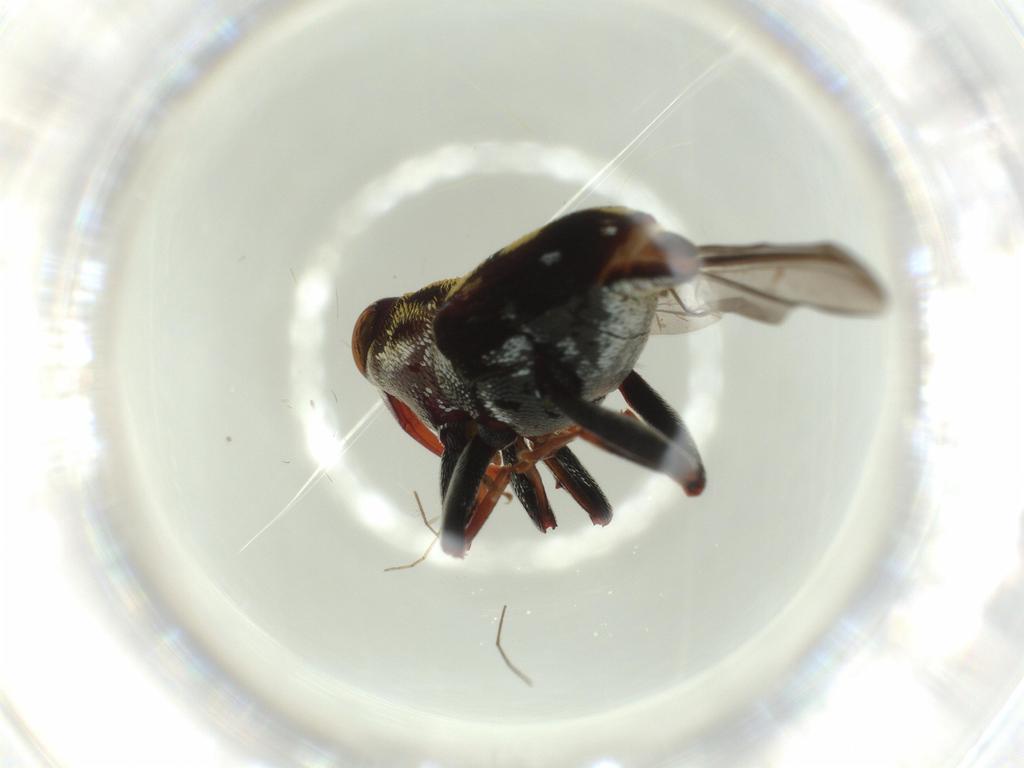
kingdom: Animalia
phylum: Arthropoda
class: Insecta
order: Coleoptera
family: Curculionidae
